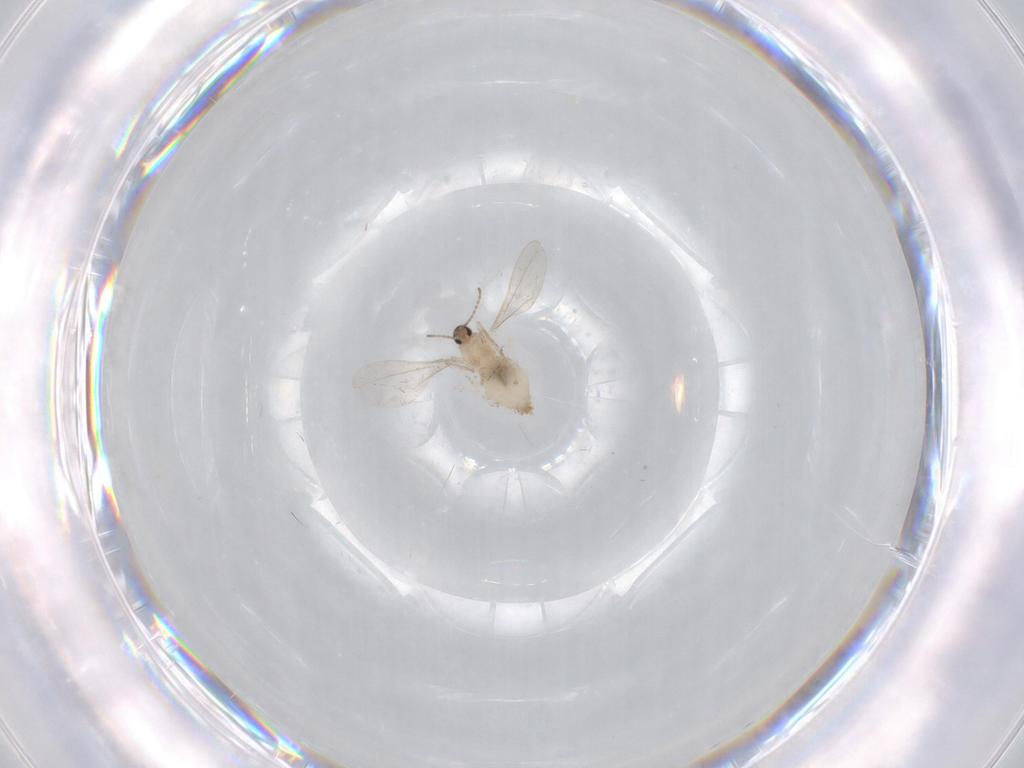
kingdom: Animalia
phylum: Arthropoda
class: Insecta
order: Diptera
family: Cecidomyiidae
